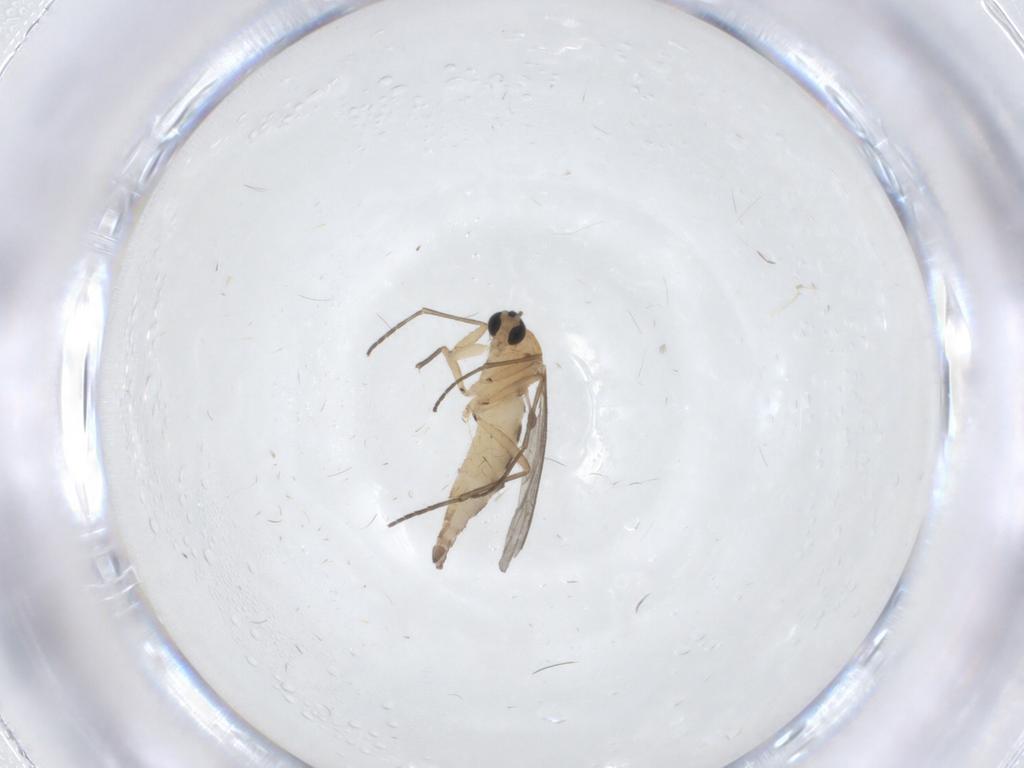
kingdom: Animalia
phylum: Arthropoda
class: Insecta
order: Diptera
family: Sciaridae
